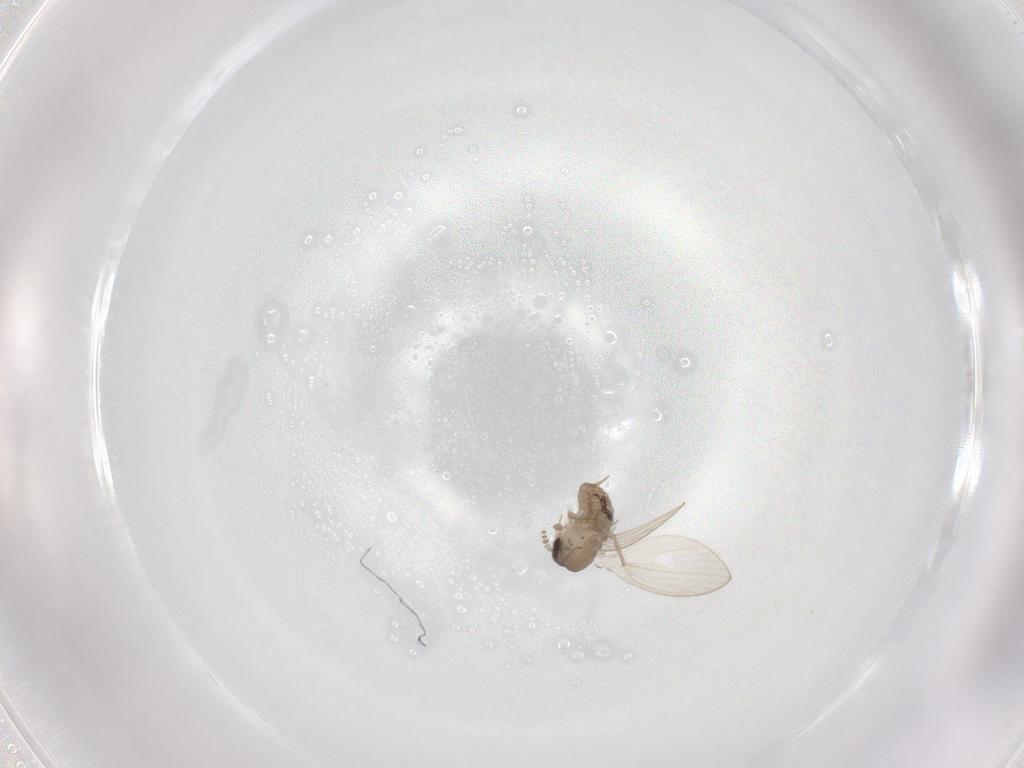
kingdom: Animalia
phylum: Arthropoda
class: Insecta
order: Diptera
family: Psychodidae
